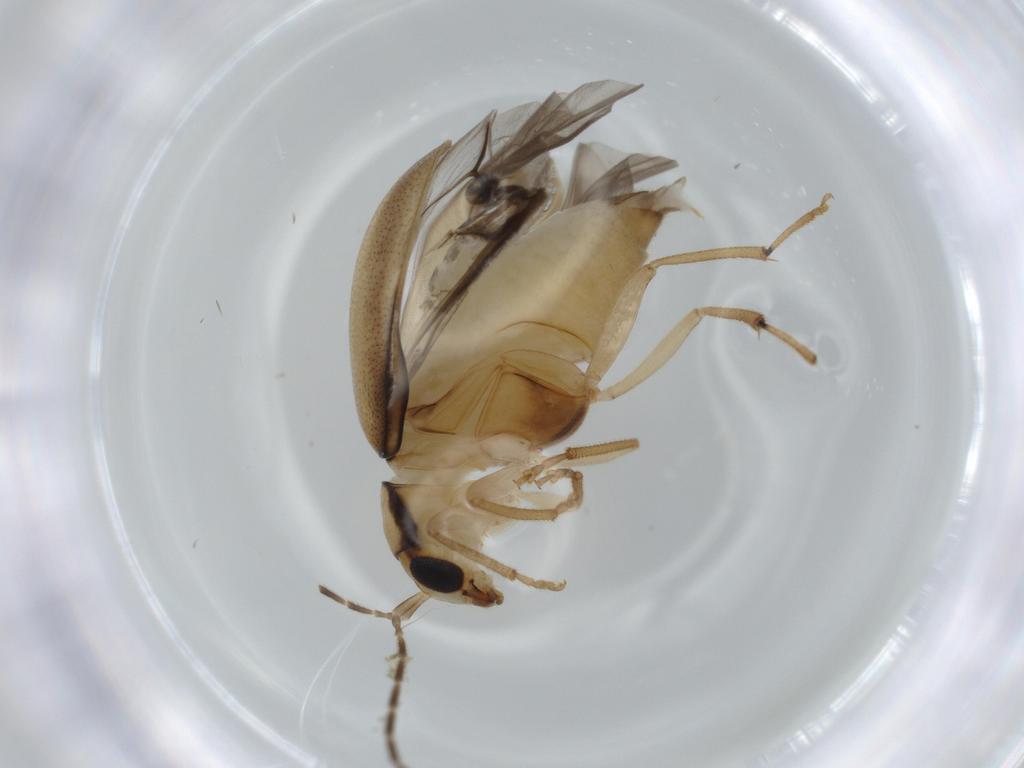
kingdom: Animalia
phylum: Arthropoda
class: Insecta
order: Coleoptera
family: Chrysomelidae
